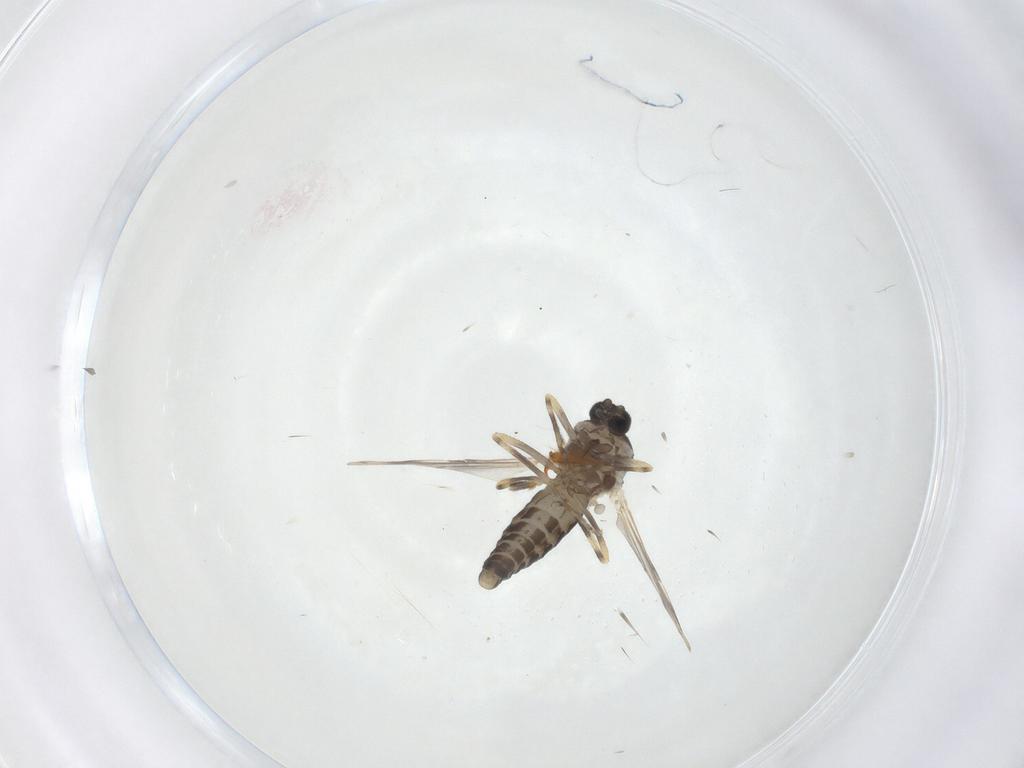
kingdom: Animalia
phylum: Arthropoda
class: Insecta
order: Diptera
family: Ceratopogonidae
